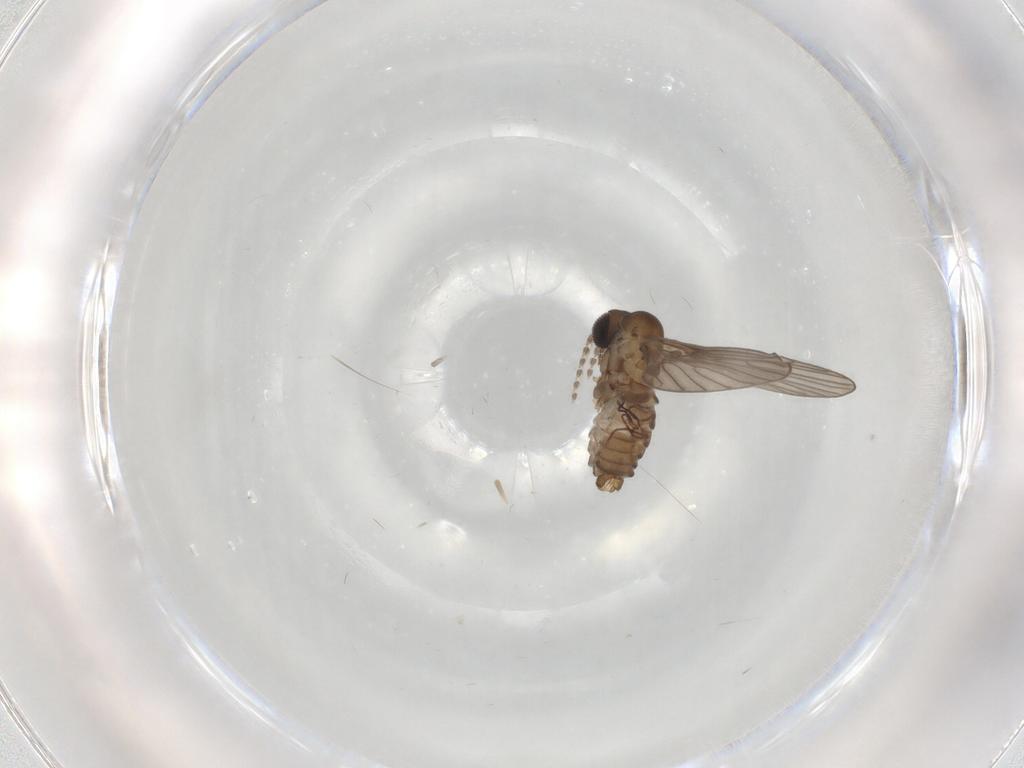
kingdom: Animalia
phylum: Arthropoda
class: Insecta
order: Diptera
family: Psychodidae
